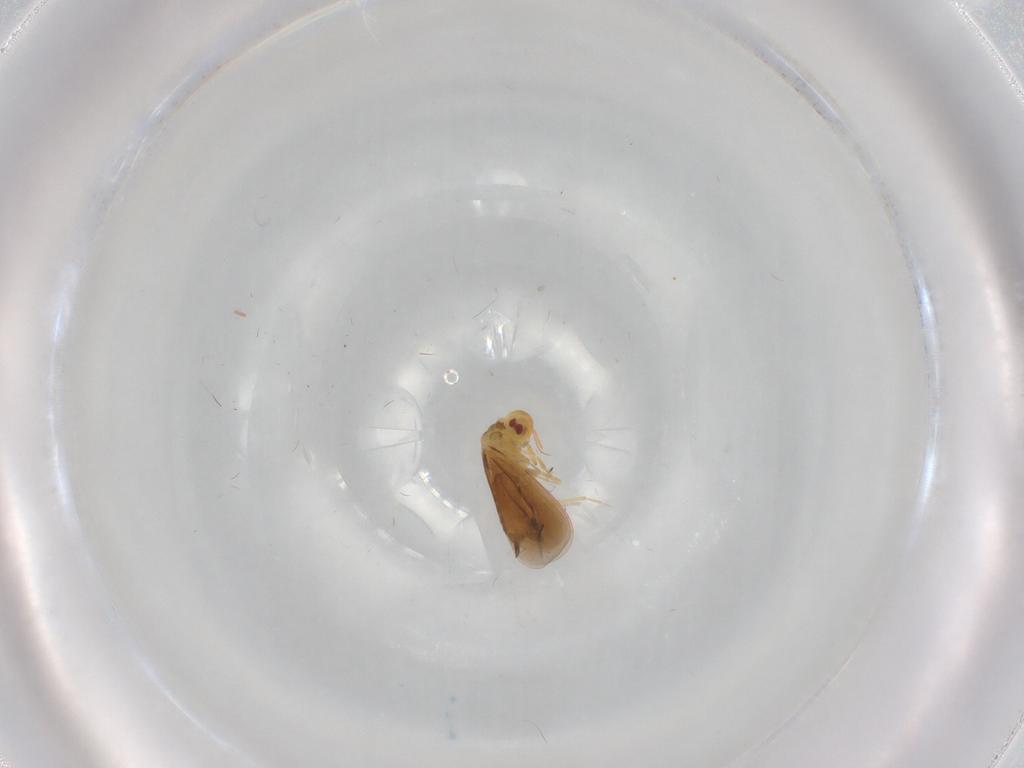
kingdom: Animalia
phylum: Arthropoda
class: Insecta
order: Hemiptera
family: Aleyrodidae
